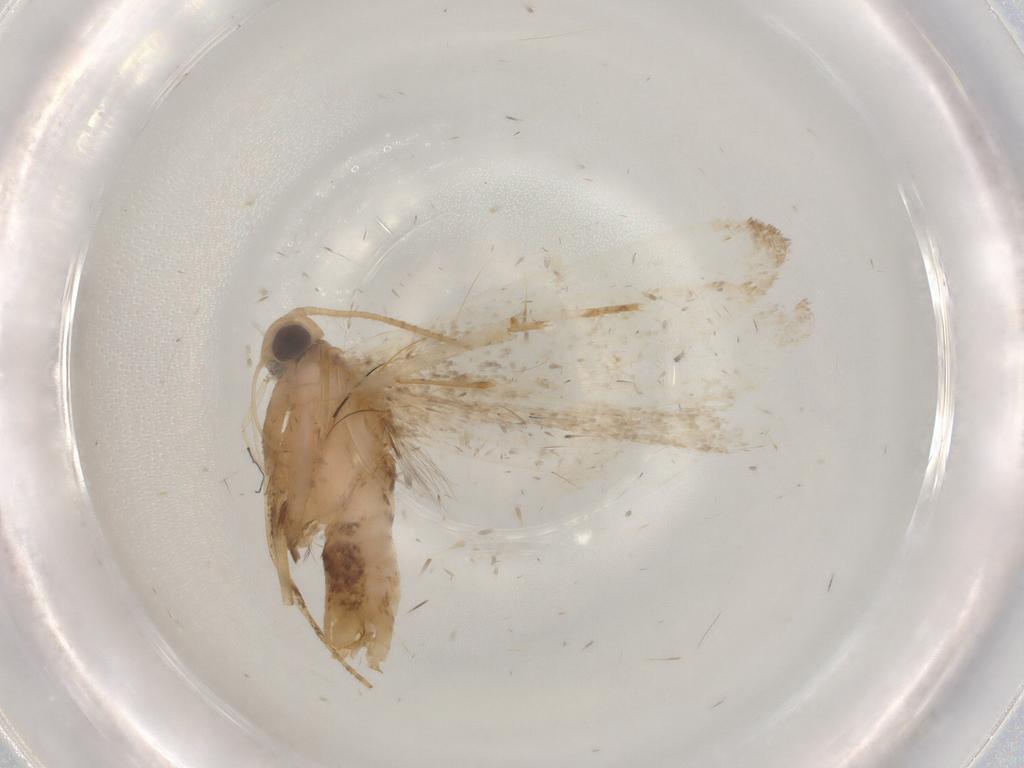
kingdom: Animalia
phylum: Arthropoda
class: Insecta
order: Lepidoptera
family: Gelechiidae
